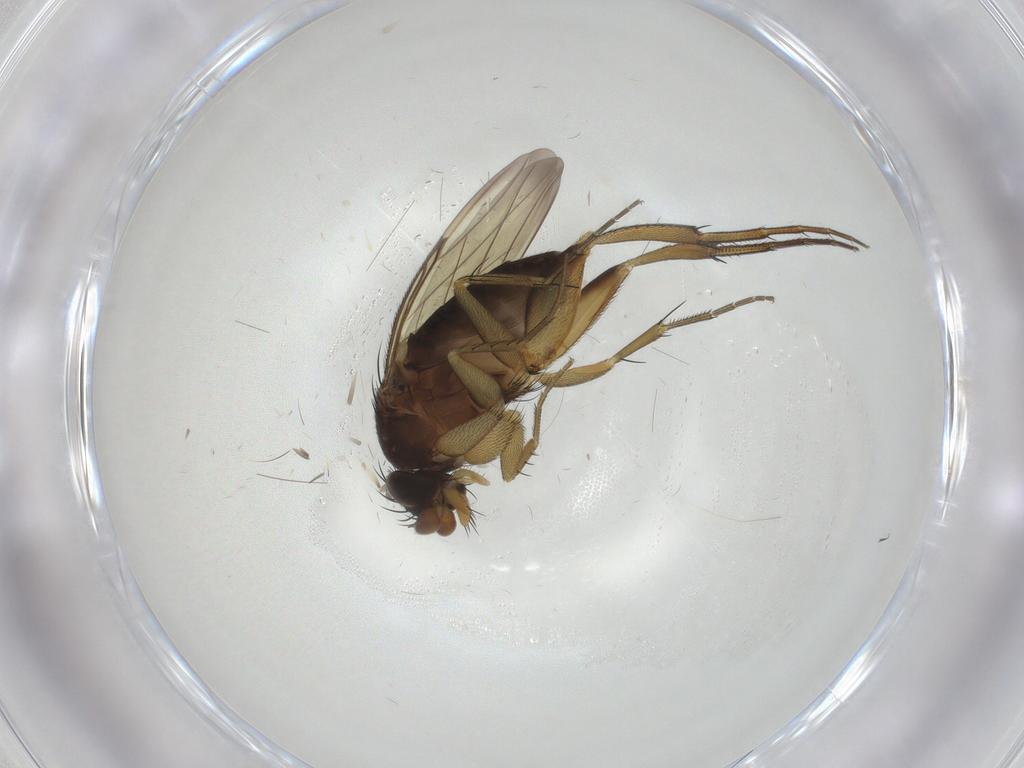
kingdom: Animalia
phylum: Arthropoda
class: Insecta
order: Diptera
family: Phoridae
